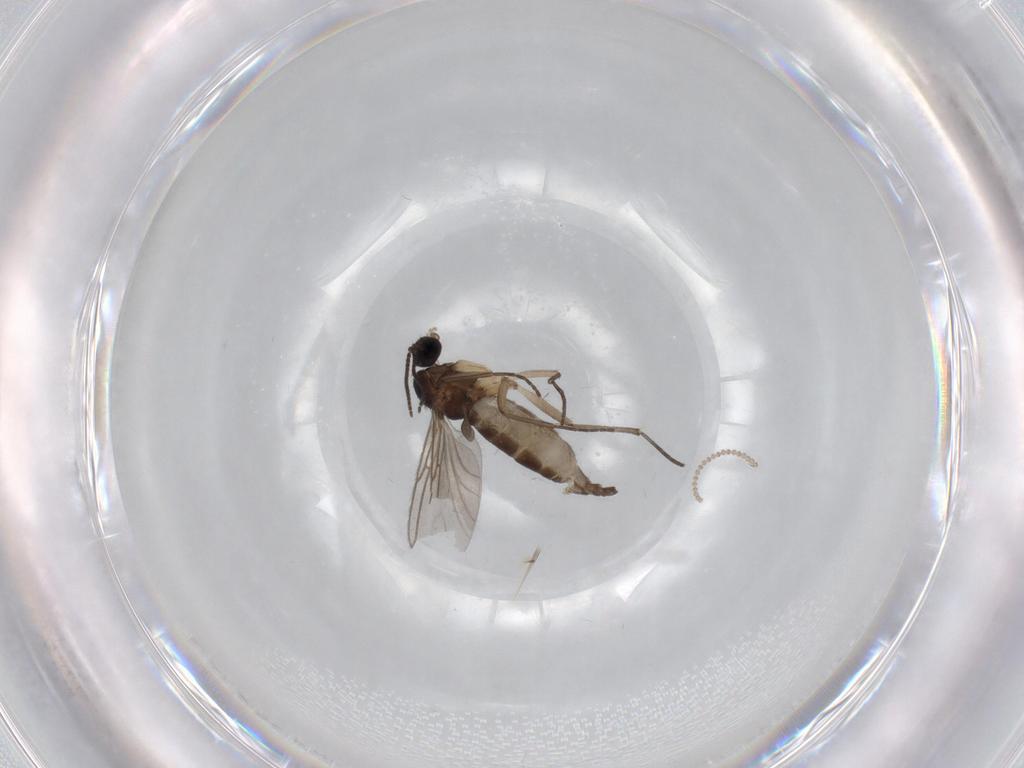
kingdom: Animalia
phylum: Arthropoda
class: Insecta
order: Diptera
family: Sciaridae
